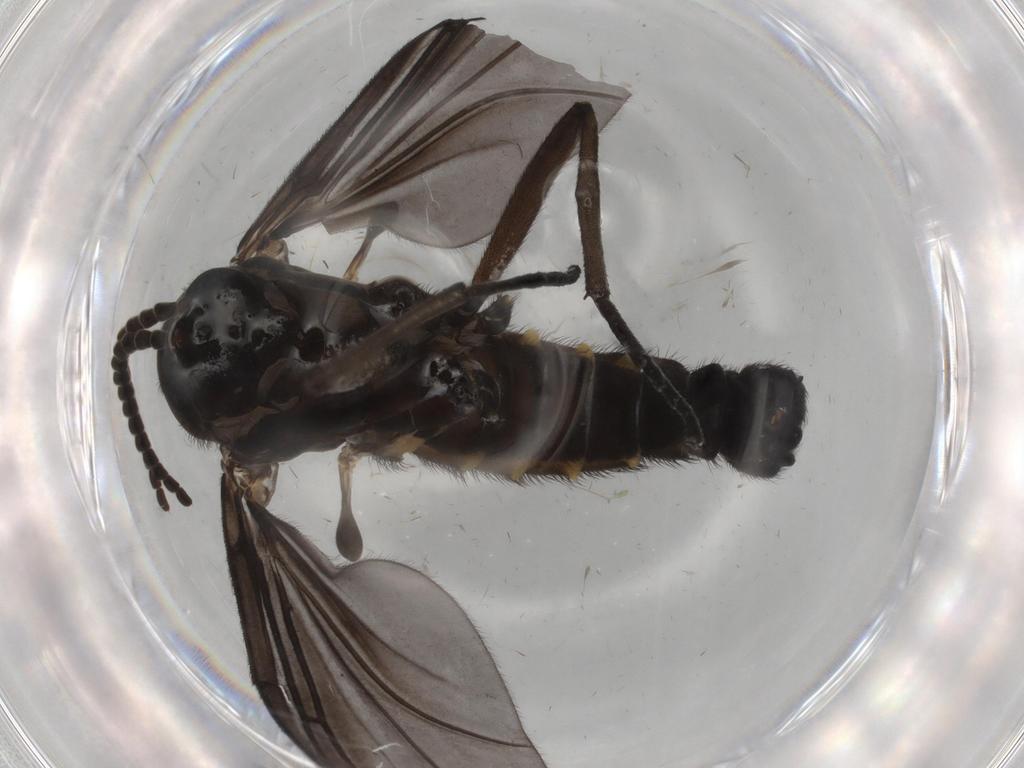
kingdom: Animalia
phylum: Arthropoda
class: Insecta
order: Diptera
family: Sciaridae
